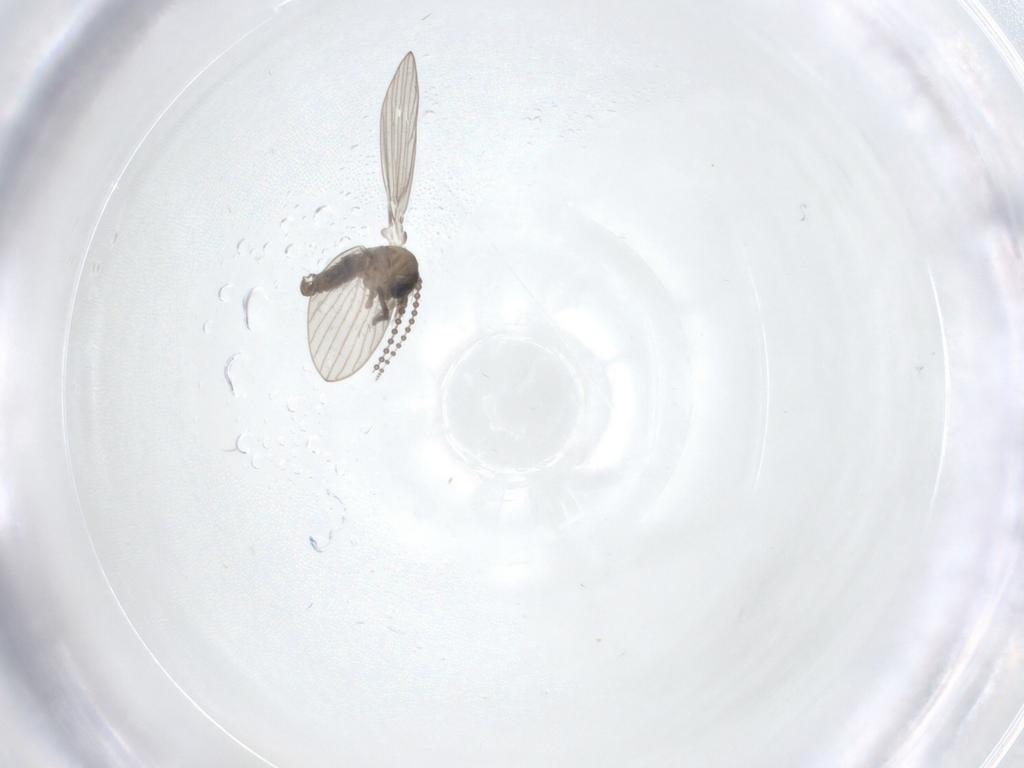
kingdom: Animalia
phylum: Arthropoda
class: Insecta
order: Diptera
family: Psychodidae
